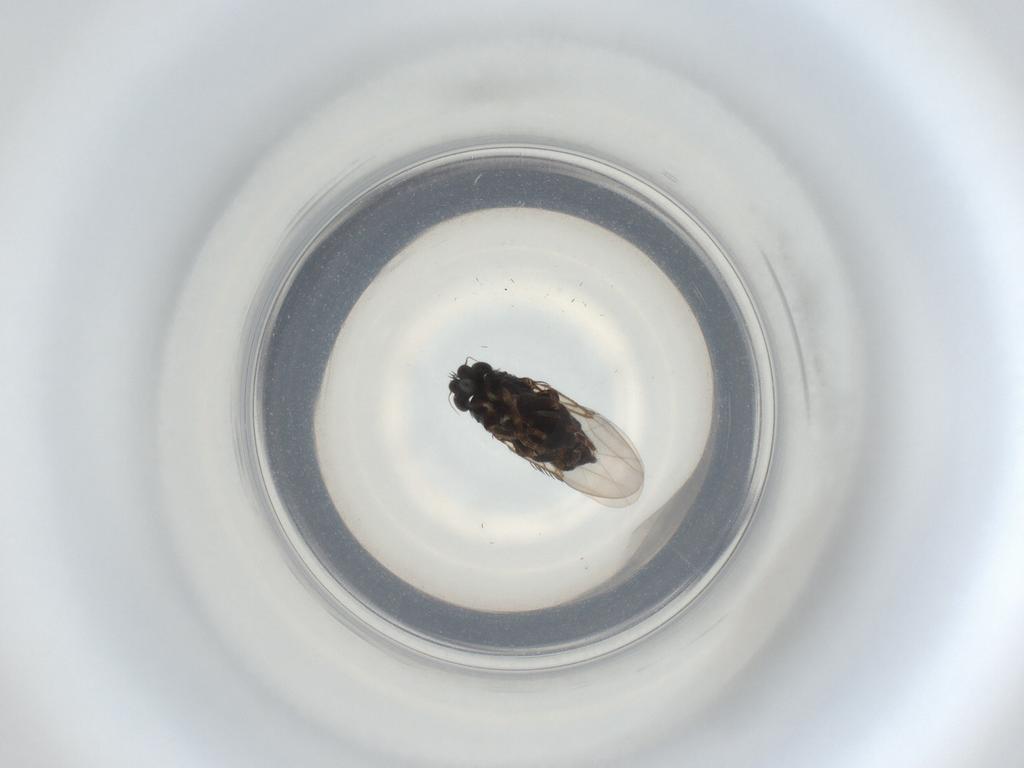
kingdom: Animalia
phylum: Arthropoda
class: Insecta
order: Diptera
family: Phoridae
